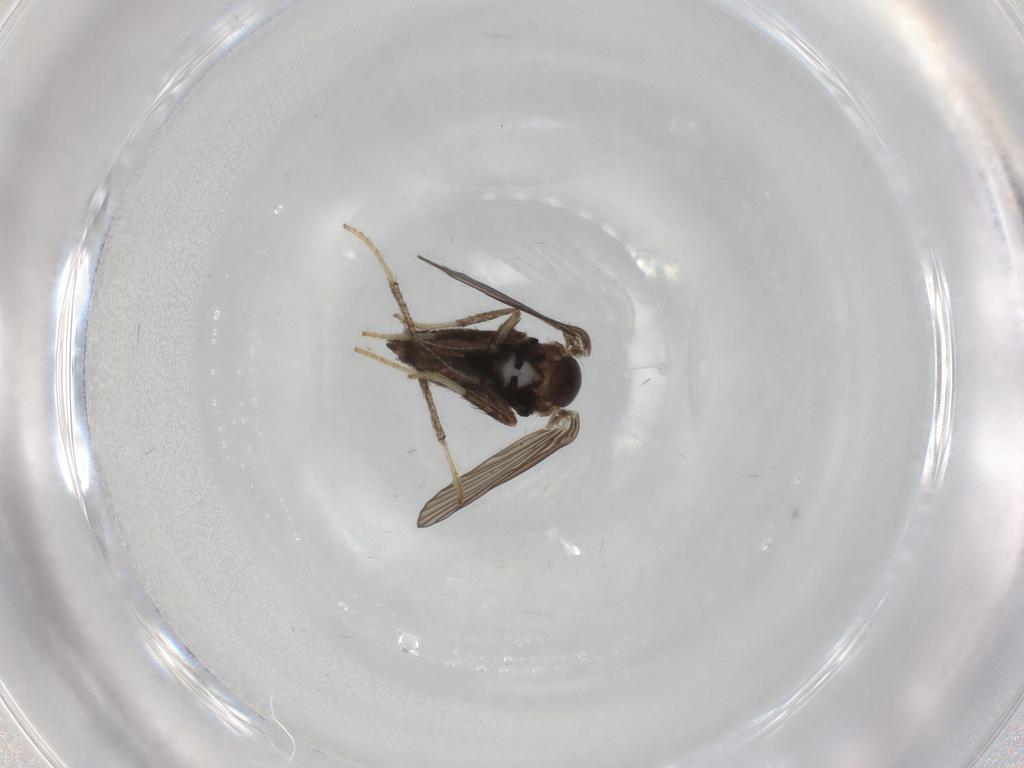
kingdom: Animalia
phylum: Arthropoda
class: Insecta
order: Diptera
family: Psychodidae
